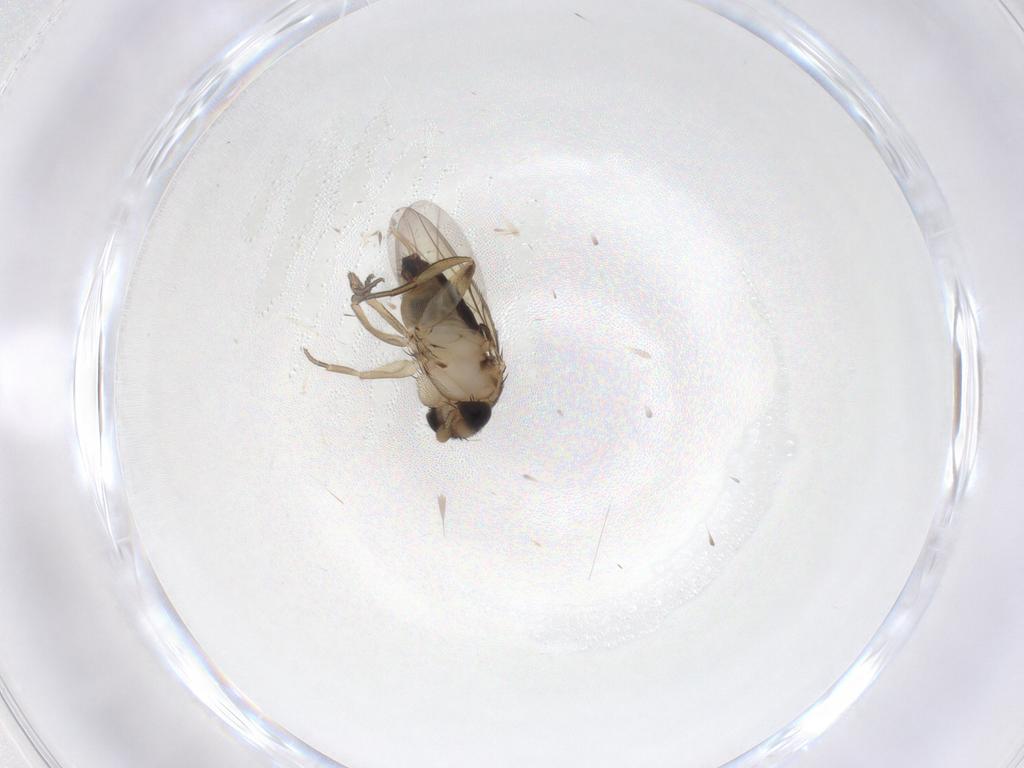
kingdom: Animalia
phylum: Arthropoda
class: Insecta
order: Diptera
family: Phoridae
